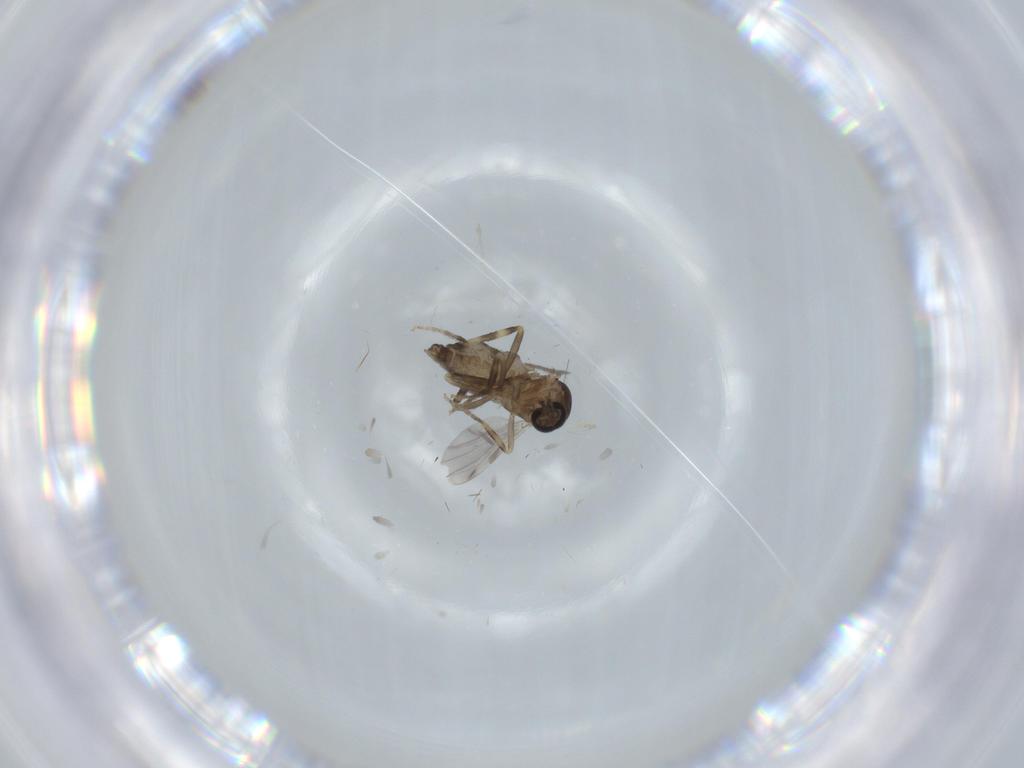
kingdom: Animalia
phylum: Arthropoda
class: Insecta
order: Diptera
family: Ceratopogonidae
